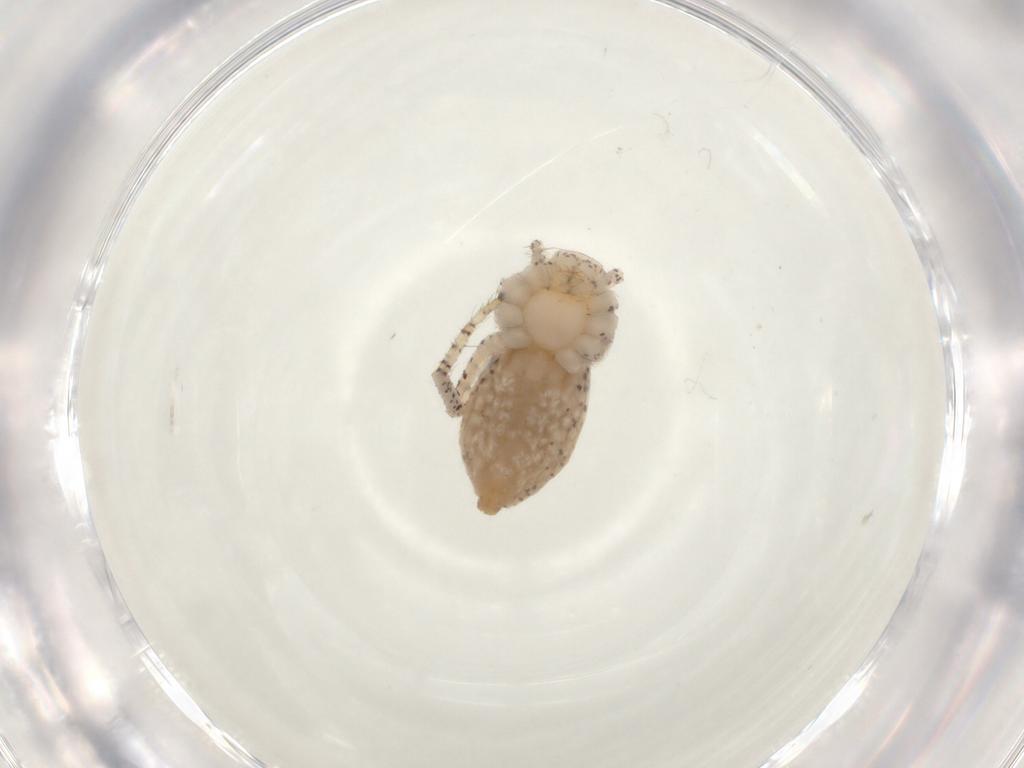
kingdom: Animalia
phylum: Arthropoda
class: Arachnida
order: Araneae
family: Philodromidae
